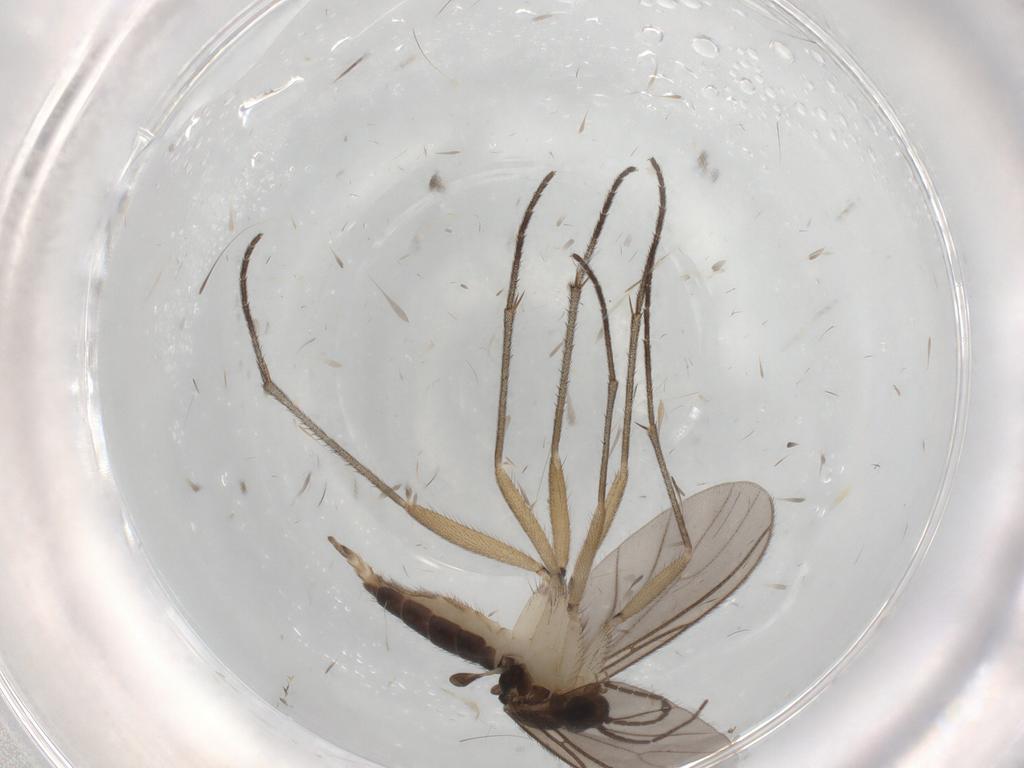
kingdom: Animalia
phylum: Arthropoda
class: Insecta
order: Diptera
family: Sciaridae
